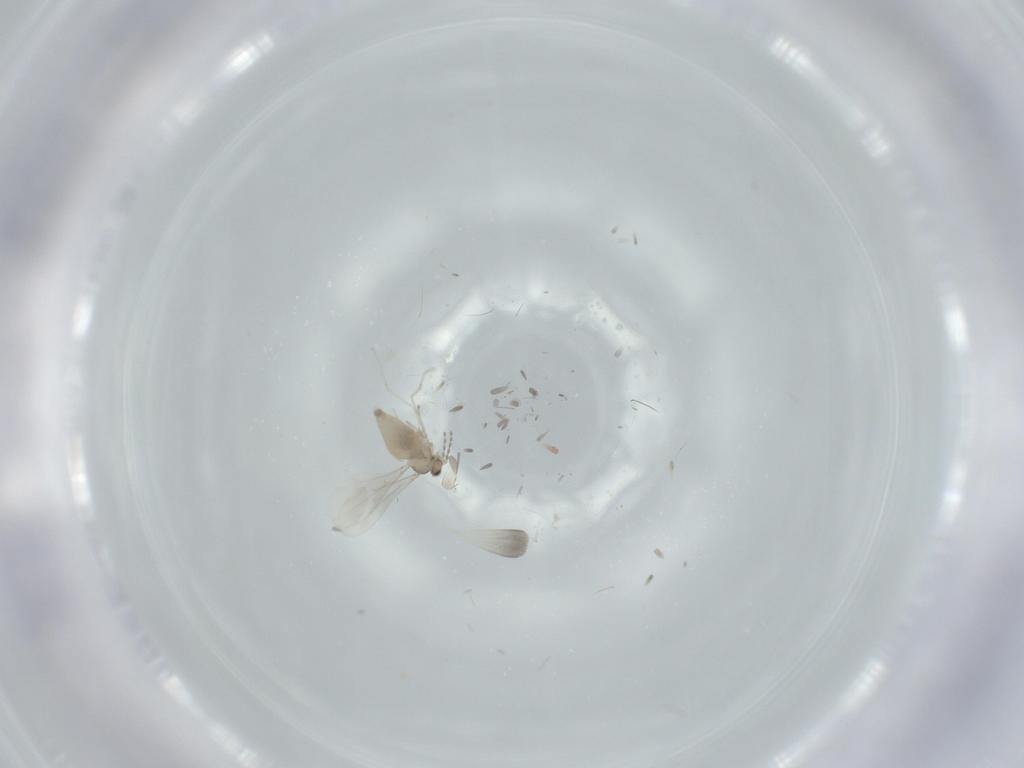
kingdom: Animalia
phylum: Arthropoda
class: Insecta
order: Diptera
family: Cecidomyiidae
